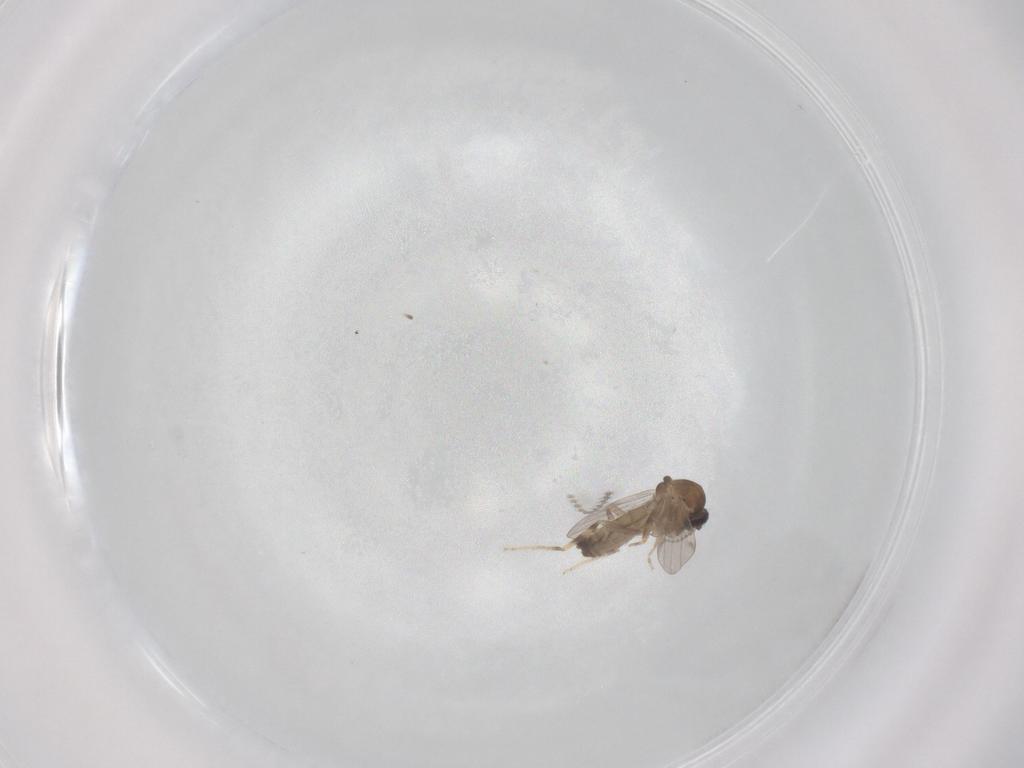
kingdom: Animalia
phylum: Arthropoda
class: Insecta
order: Diptera
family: Ceratopogonidae
